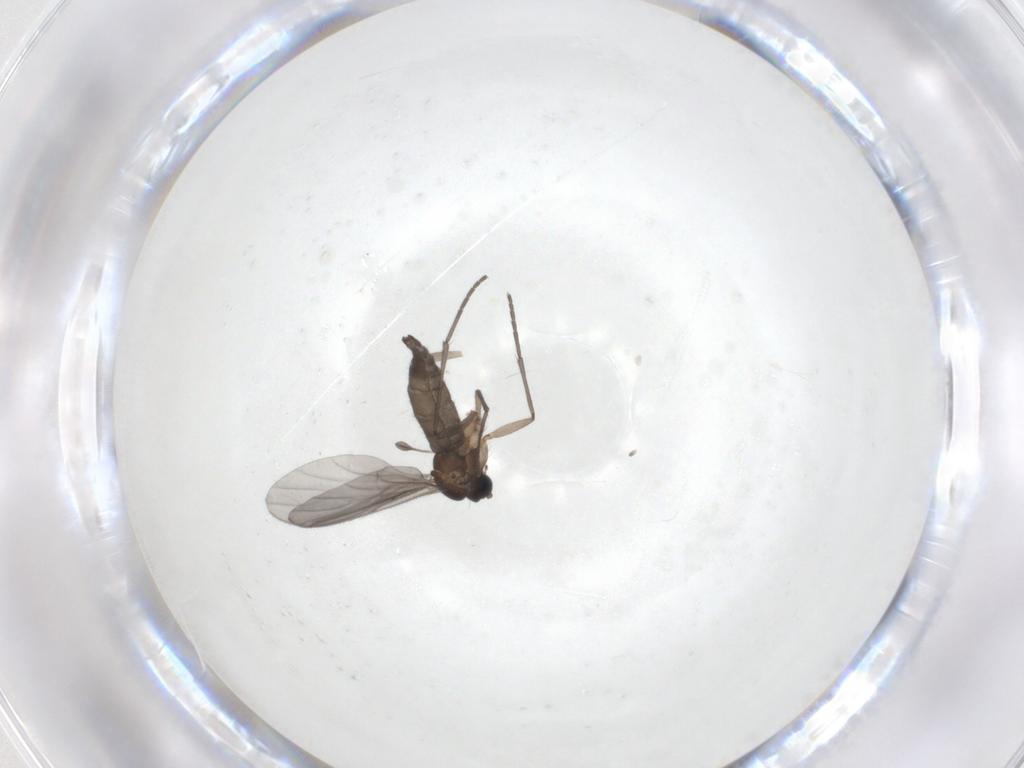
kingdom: Animalia
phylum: Arthropoda
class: Insecta
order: Diptera
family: Sciaridae
